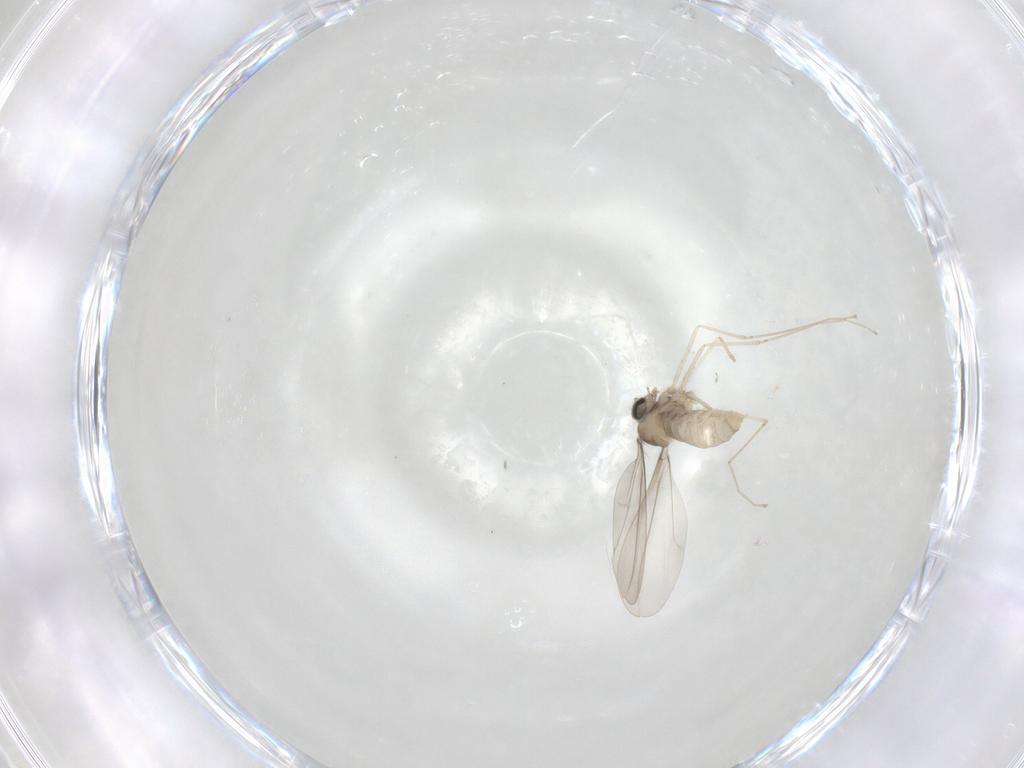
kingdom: Animalia
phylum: Arthropoda
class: Insecta
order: Diptera
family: Cecidomyiidae
